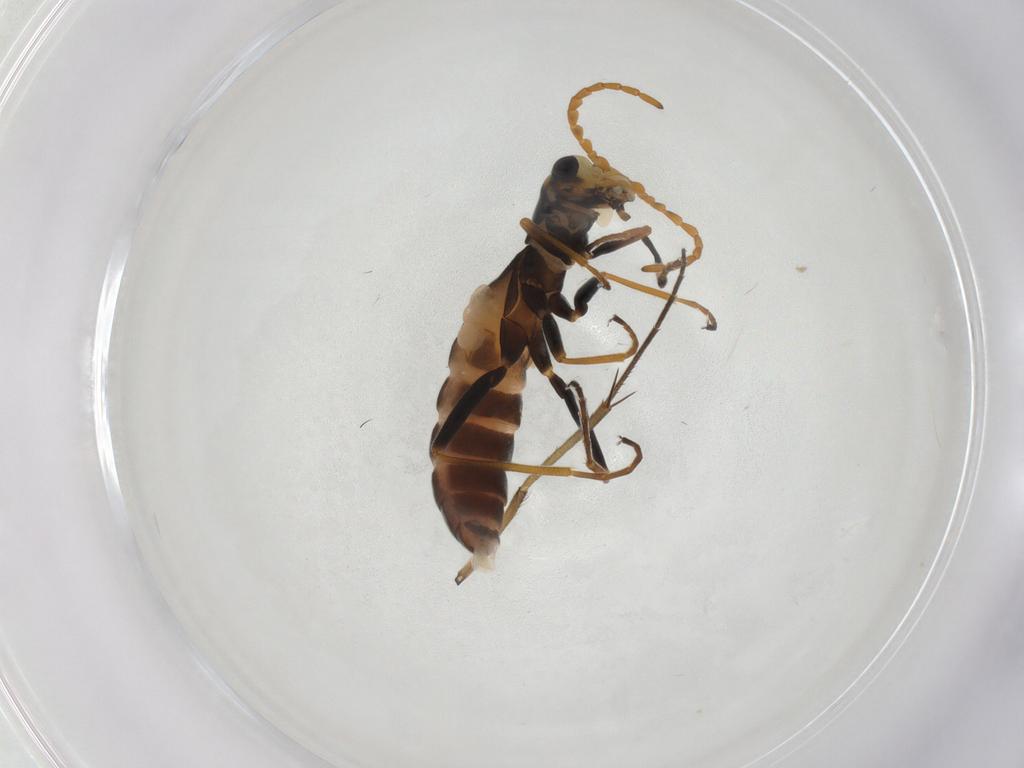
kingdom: Animalia
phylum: Arthropoda
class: Insecta
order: Coleoptera
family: Melyridae
